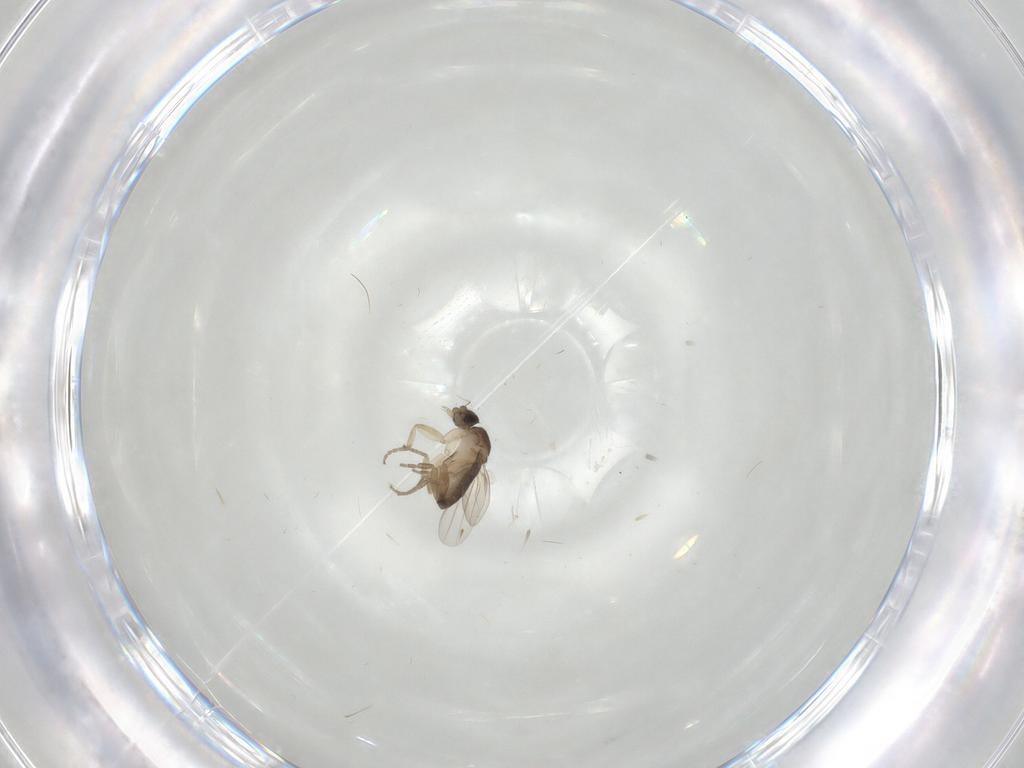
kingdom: Animalia
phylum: Arthropoda
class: Insecta
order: Diptera
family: Phoridae
